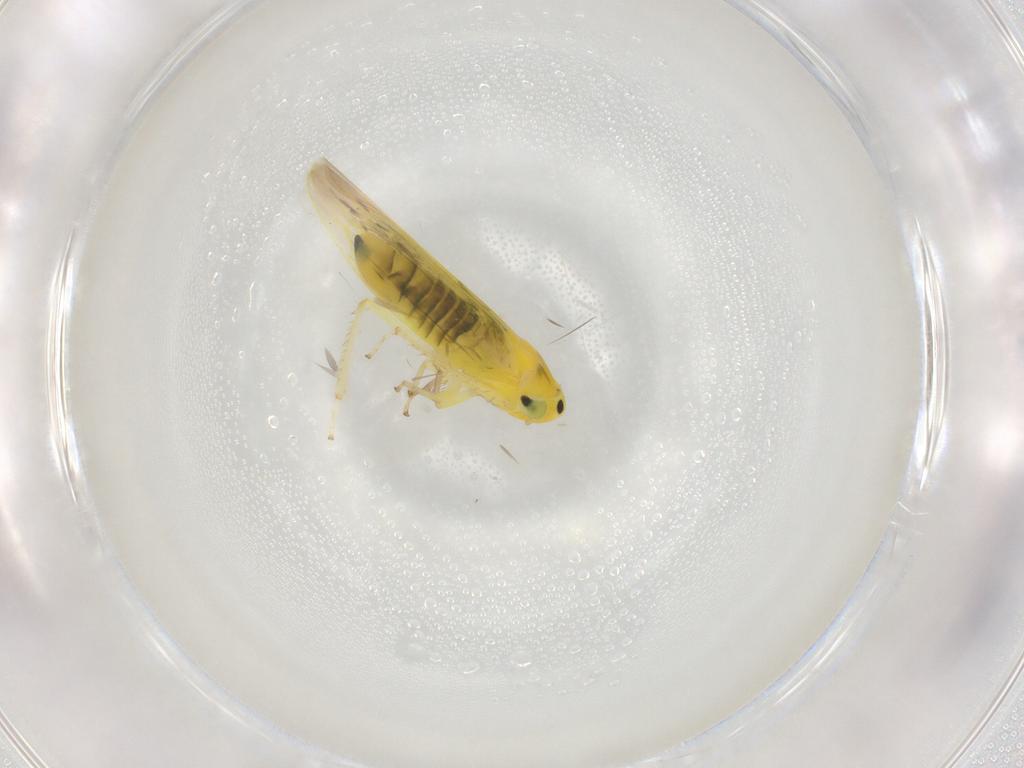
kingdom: Animalia
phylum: Arthropoda
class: Insecta
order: Hemiptera
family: Cicadellidae
